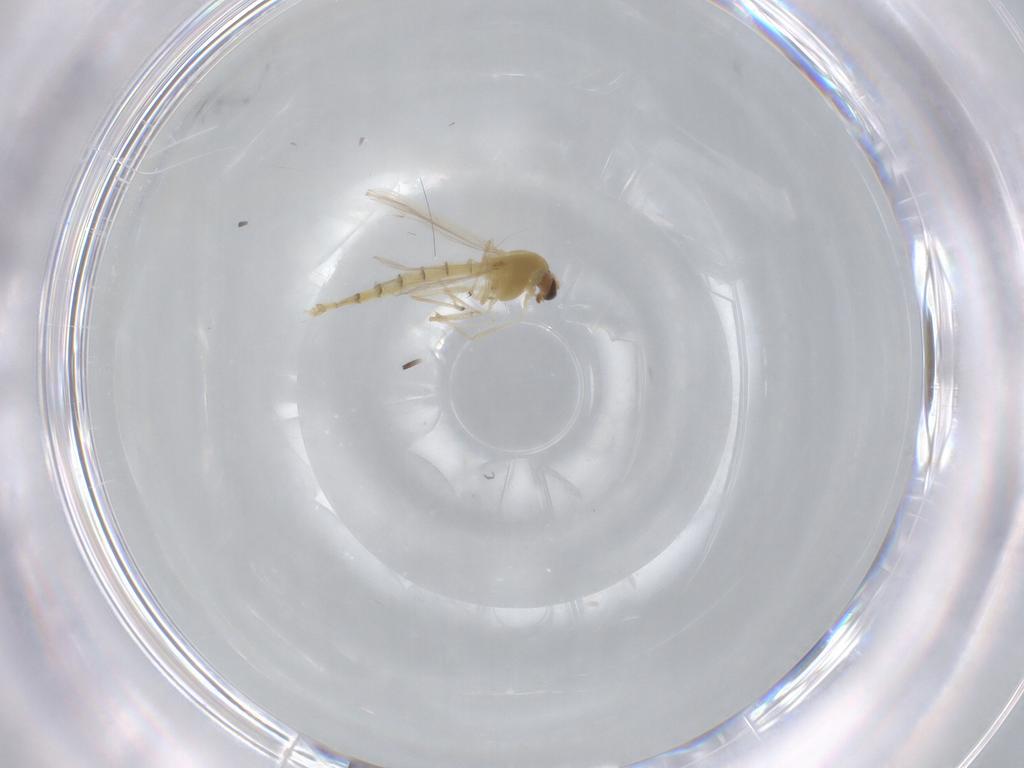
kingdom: Animalia
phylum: Arthropoda
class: Insecta
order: Diptera
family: Chironomidae
